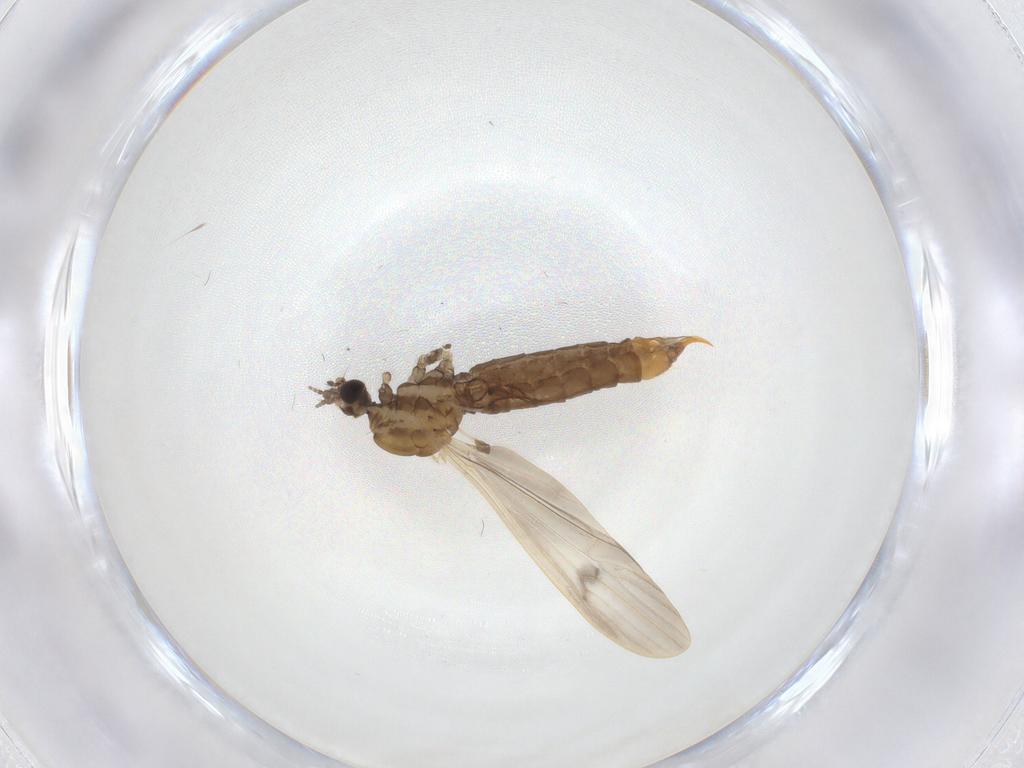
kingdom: Animalia
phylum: Arthropoda
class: Insecta
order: Diptera
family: Limoniidae
